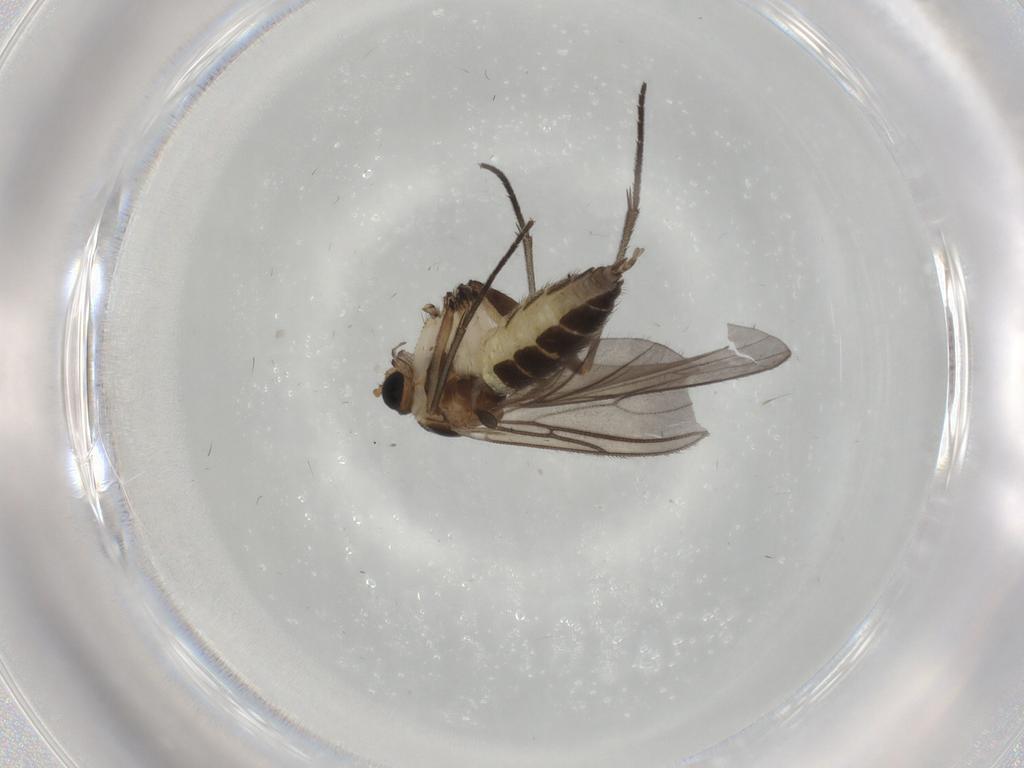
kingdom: Animalia
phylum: Arthropoda
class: Insecta
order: Diptera
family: Sciaridae
